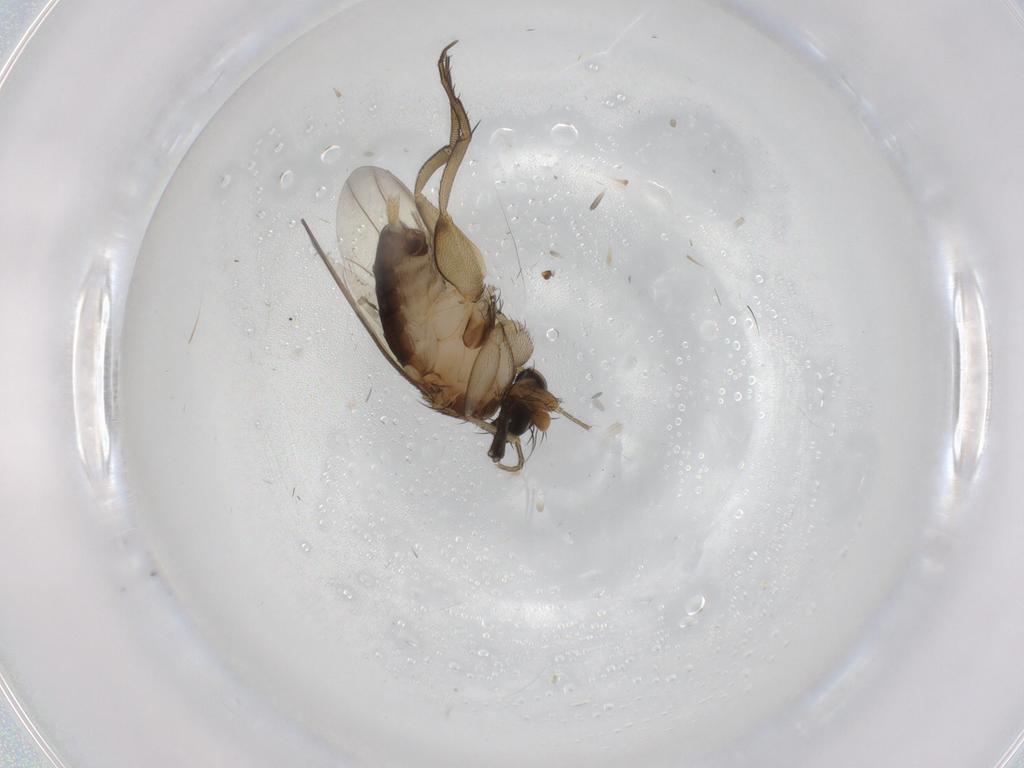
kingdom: Animalia
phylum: Arthropoda
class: Insecta
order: Diptera
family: Phoridae
